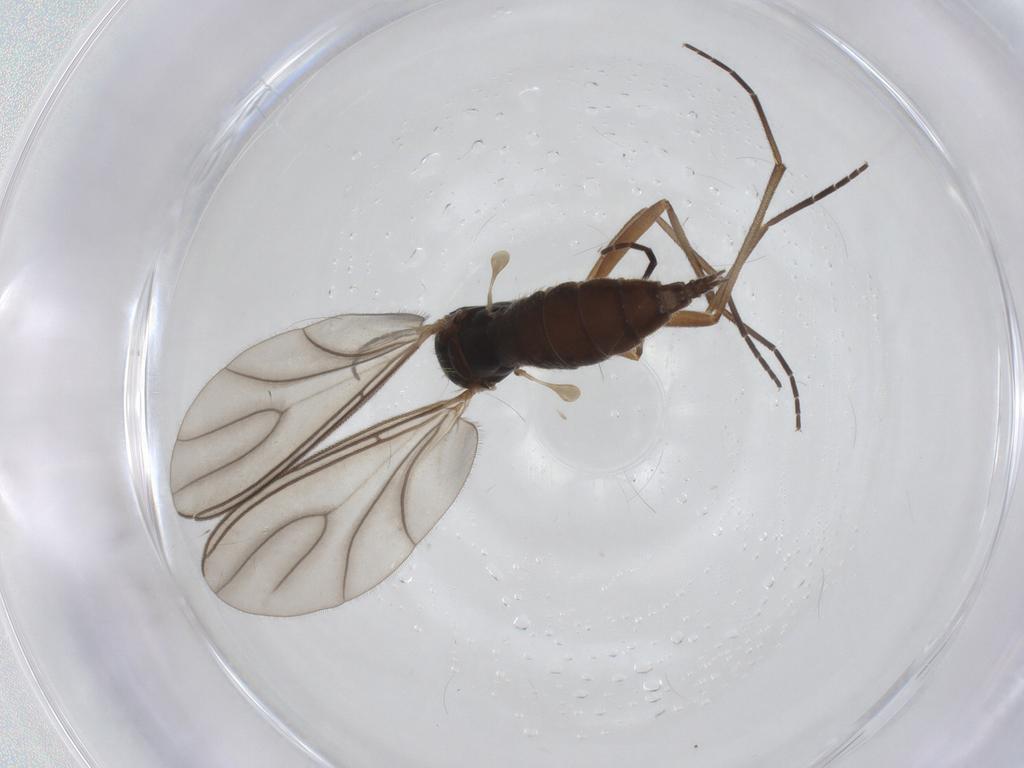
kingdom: Animalia
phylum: Arthropoda
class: Insecta
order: Diptera
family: Sciaridae
